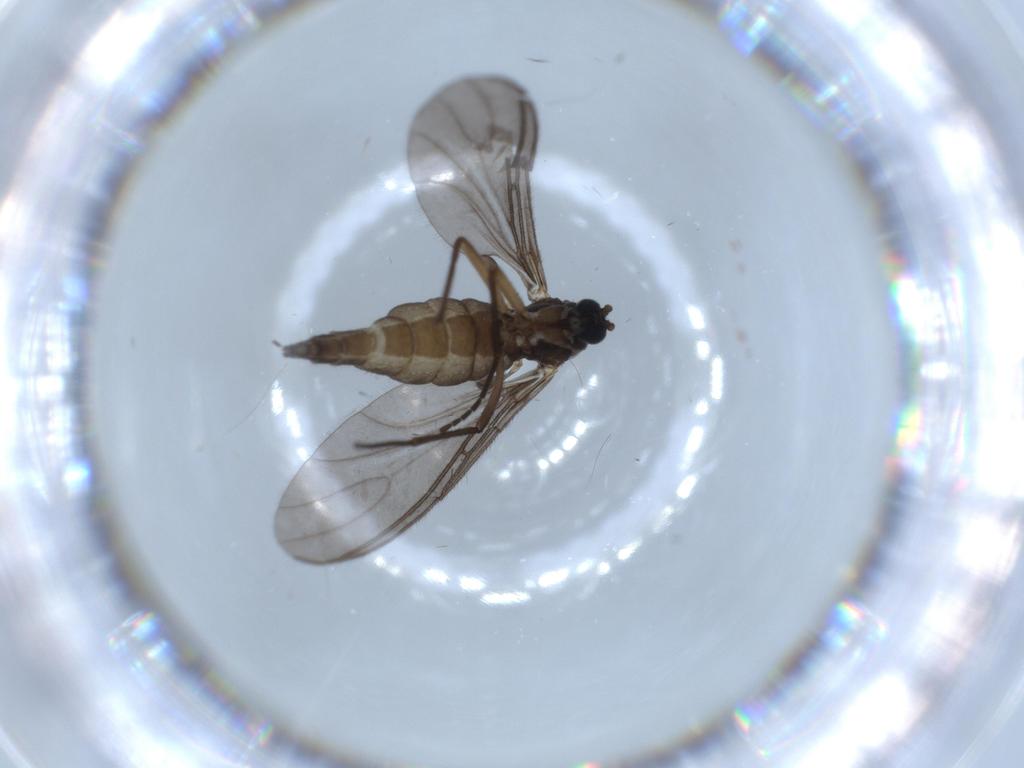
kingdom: Animalia
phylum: Arthropoda
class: Insecta
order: Diptera
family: Sciaridae
